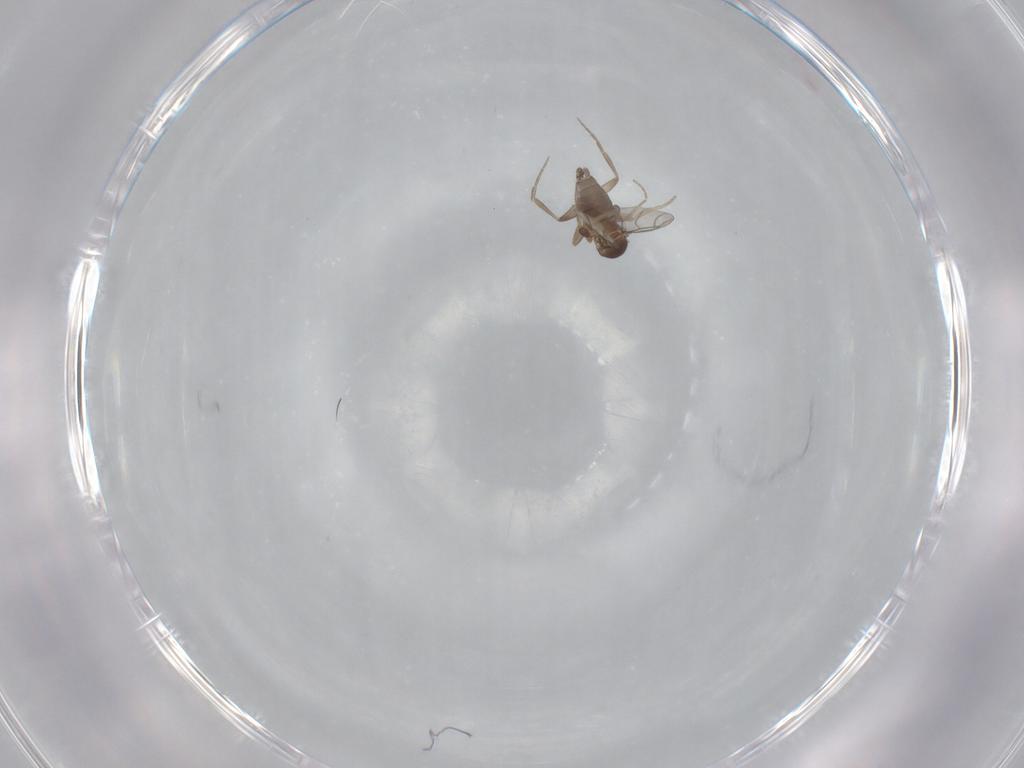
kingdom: Animalia
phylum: Arthropoda
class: Insecta
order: Diptera
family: Phoridae
